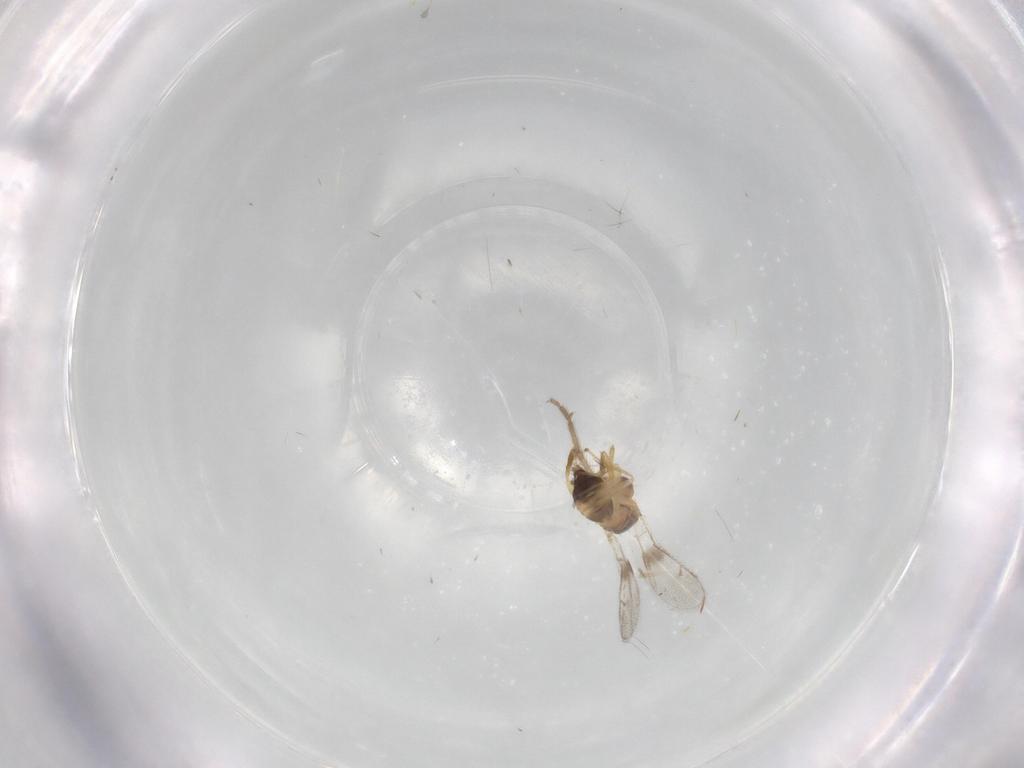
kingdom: Animalia
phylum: Arthropoda
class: Insecta
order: Hymenoptera
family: Torymidae
